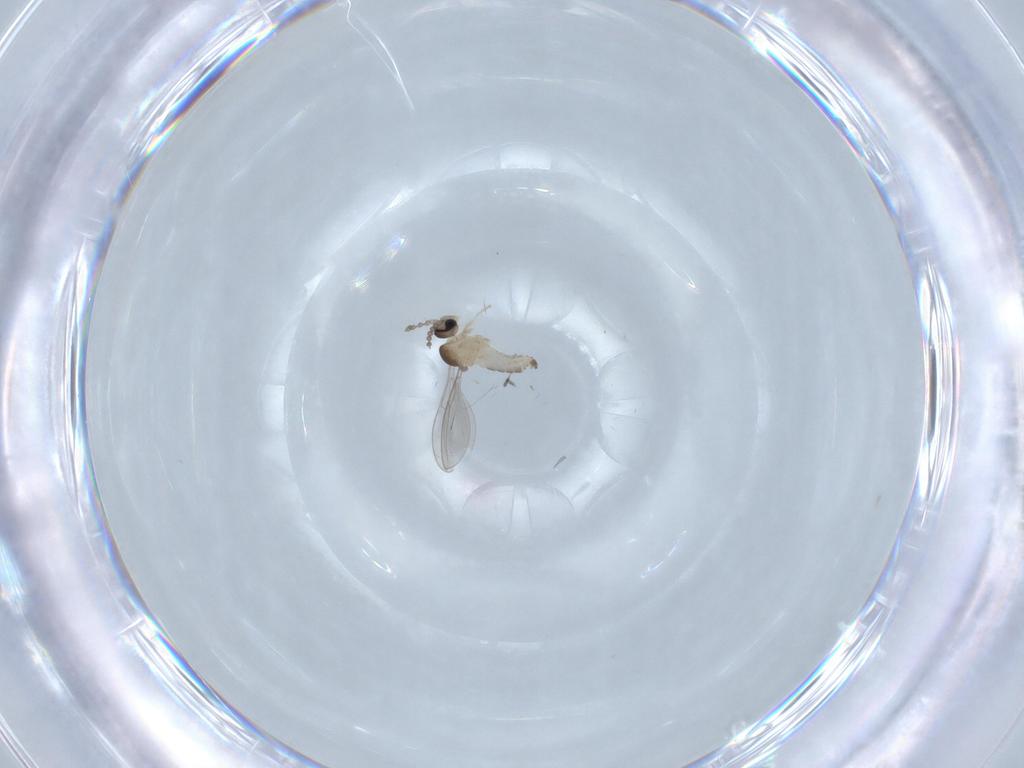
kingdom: Animalia
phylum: Arthropoda
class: Insecta
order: Diptera
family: Cecidomyiidae
